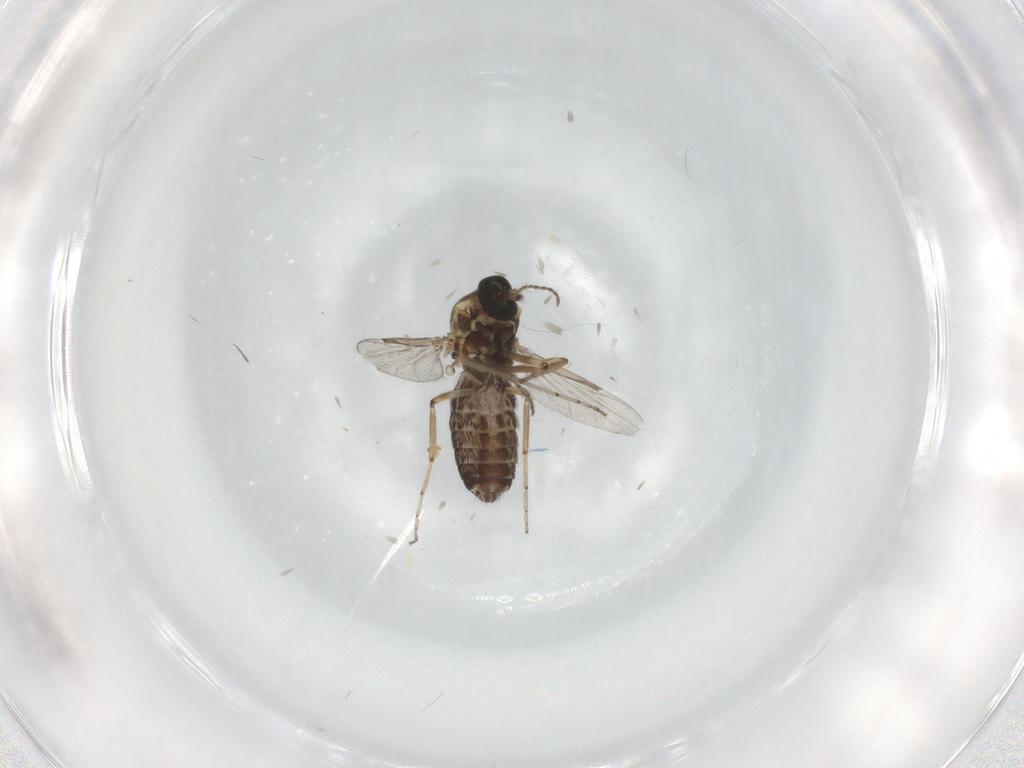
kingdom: Animalia
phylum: Arthropoda
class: Insecta
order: Diptera
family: Ceratopogonidae
